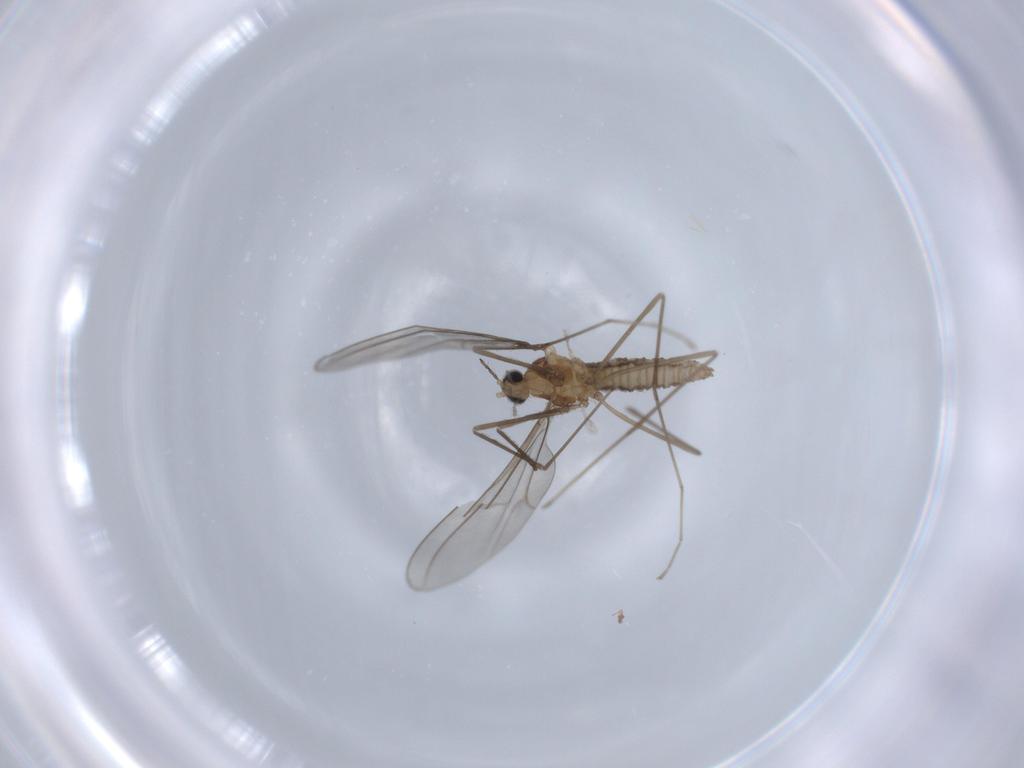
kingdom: Animalia
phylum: Arthropoda
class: Insecta
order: Diptera
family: Cecidomyiidae
